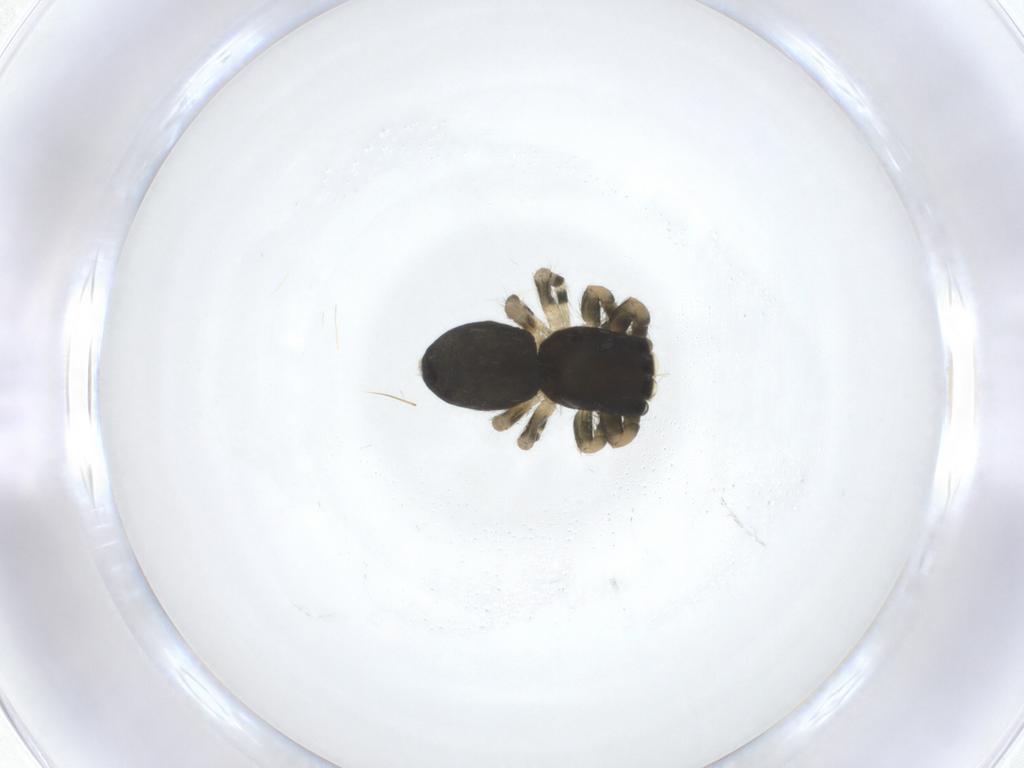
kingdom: Animalia
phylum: Arthropoda
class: Arachnida
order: Araneae
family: Salticidae
